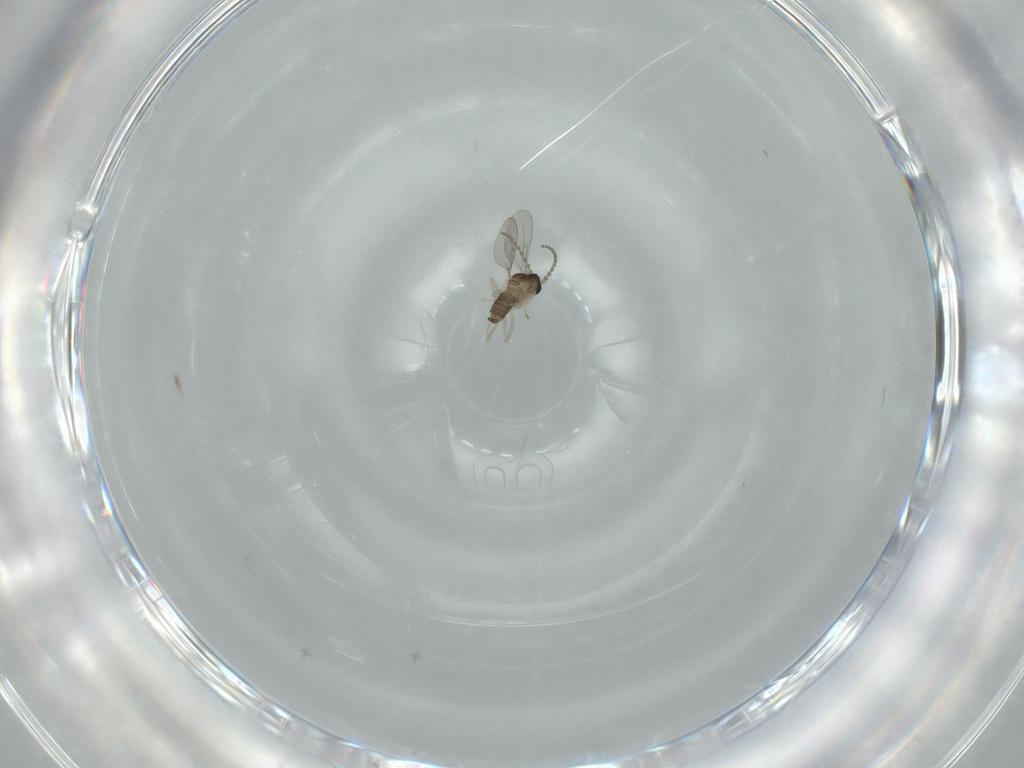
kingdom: Animalia
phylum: Arthropoda
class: Insecta
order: Diptera
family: Cecidomyiidae
